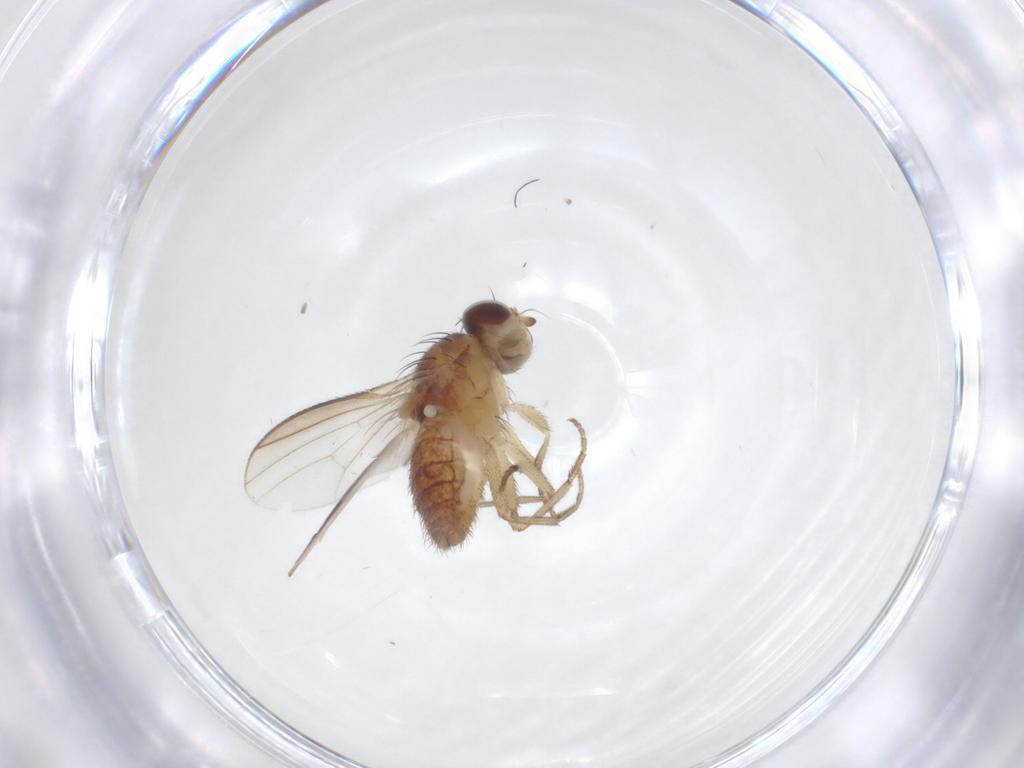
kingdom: Animalia
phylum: Arthropoda
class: Insecta
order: Diptera
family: Heleomyzidae
